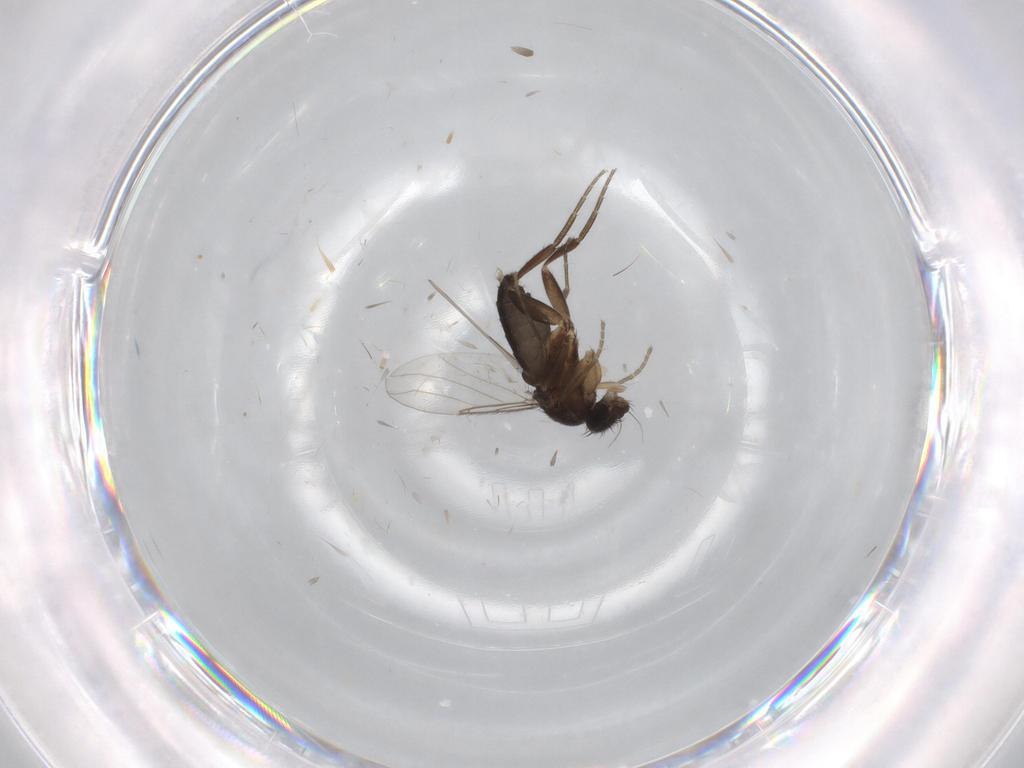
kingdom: Animalia
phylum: Arthropoda
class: Insecta
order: Diptera
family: Phoridae
